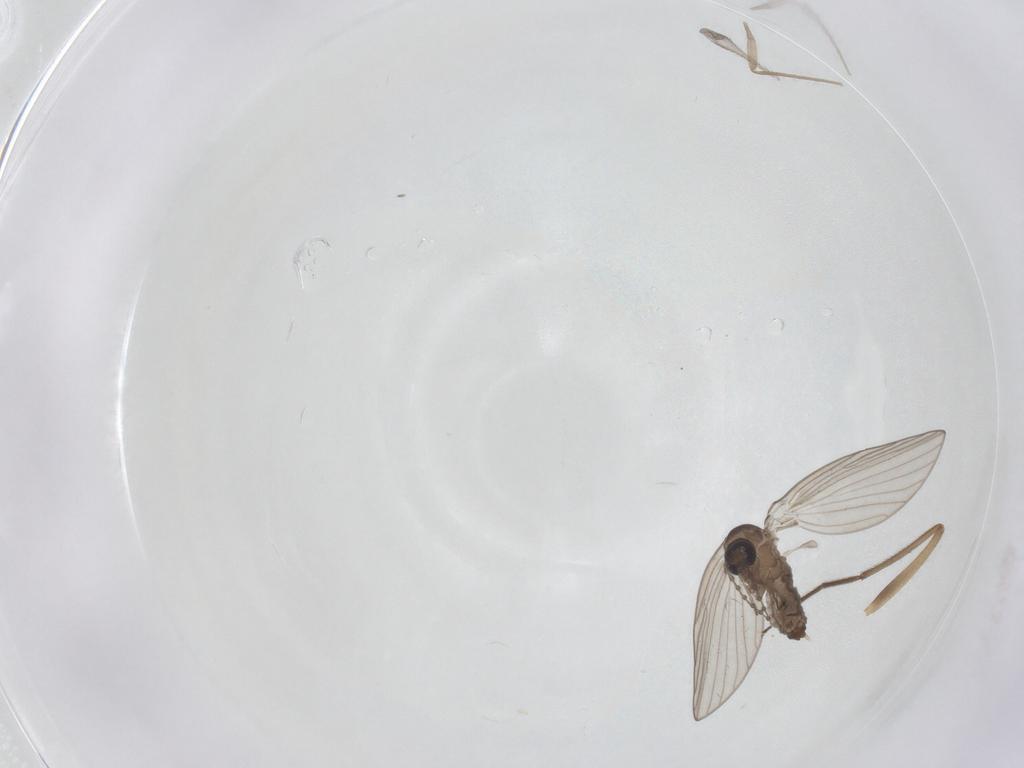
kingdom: Animalia
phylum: Arthropoda
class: Insecta
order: Diptera
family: Chironomidae
